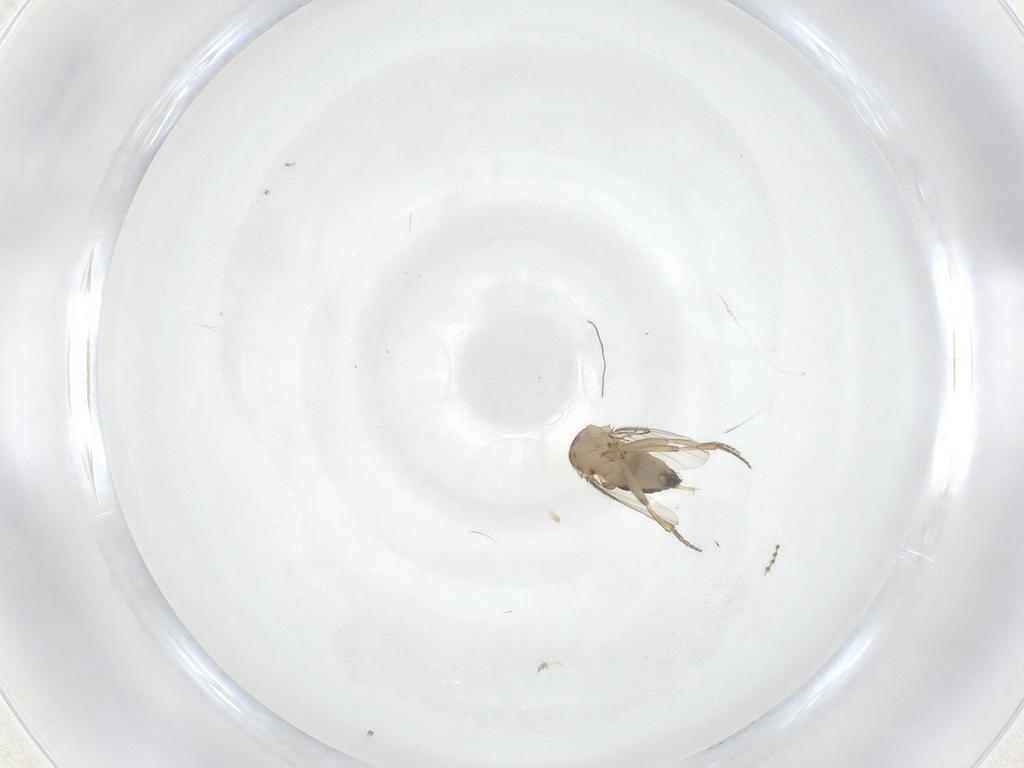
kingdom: Animalia
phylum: Arthropoda
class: Insecta
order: Diptera
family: Phoridae
